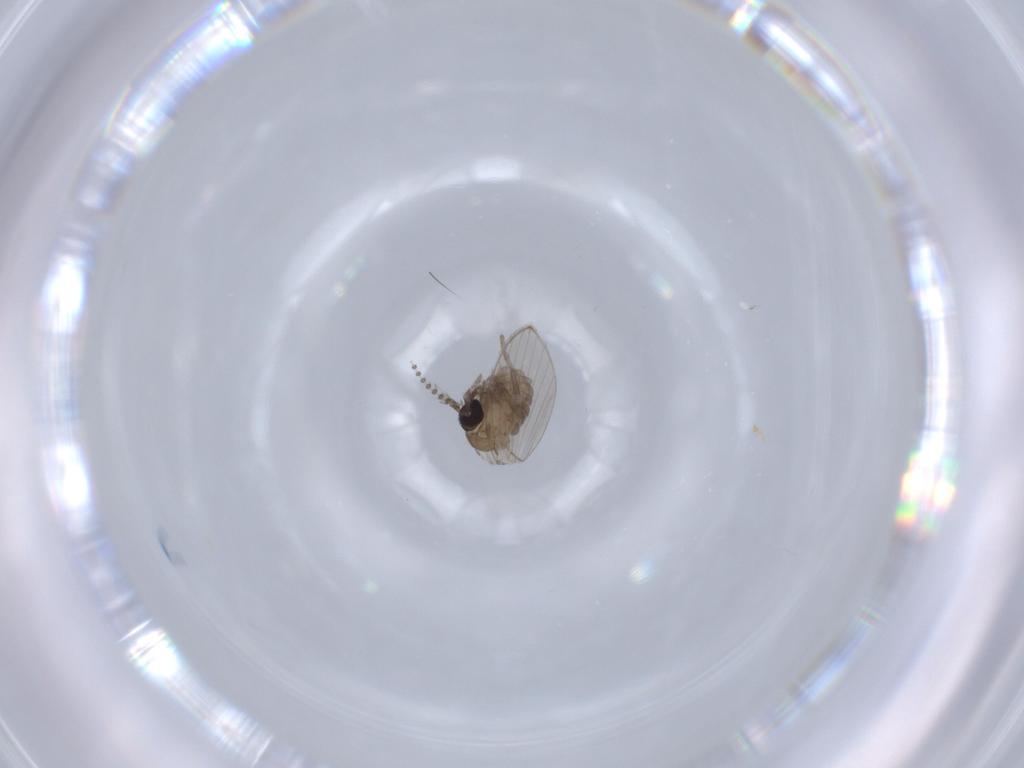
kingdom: Animalia
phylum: Arthropoda
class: Insecta
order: Diptera
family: Psychodidae
